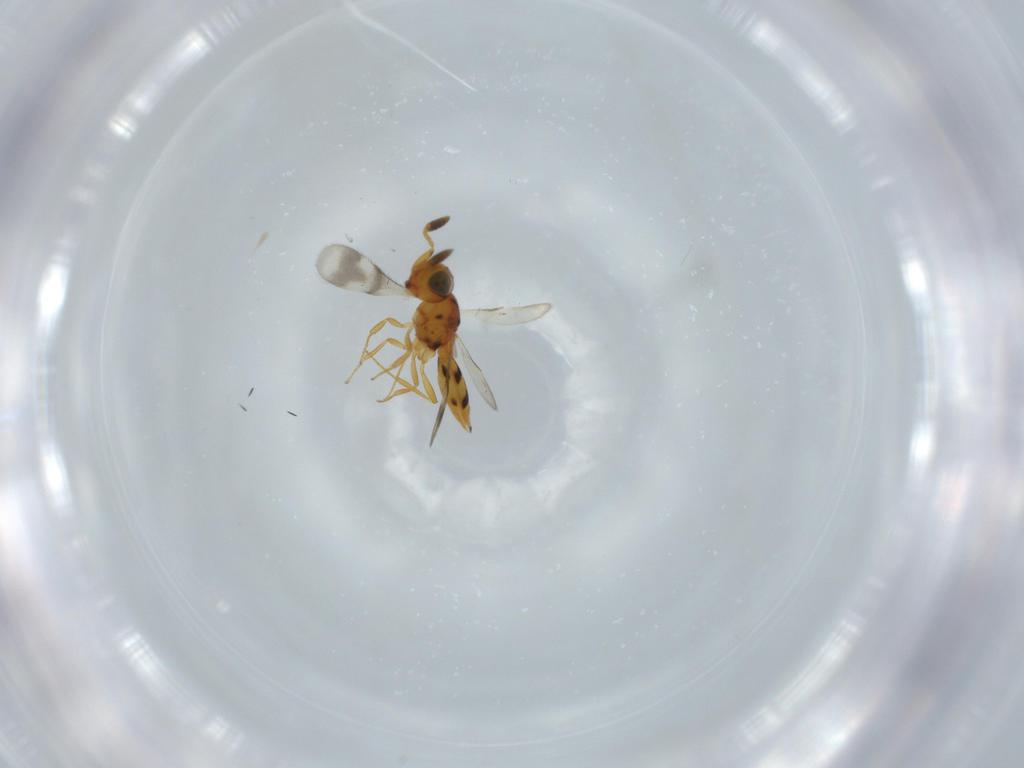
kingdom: Animalia
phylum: Arthropoda
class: Insecta
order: Hymenoptera
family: Scelionidae
